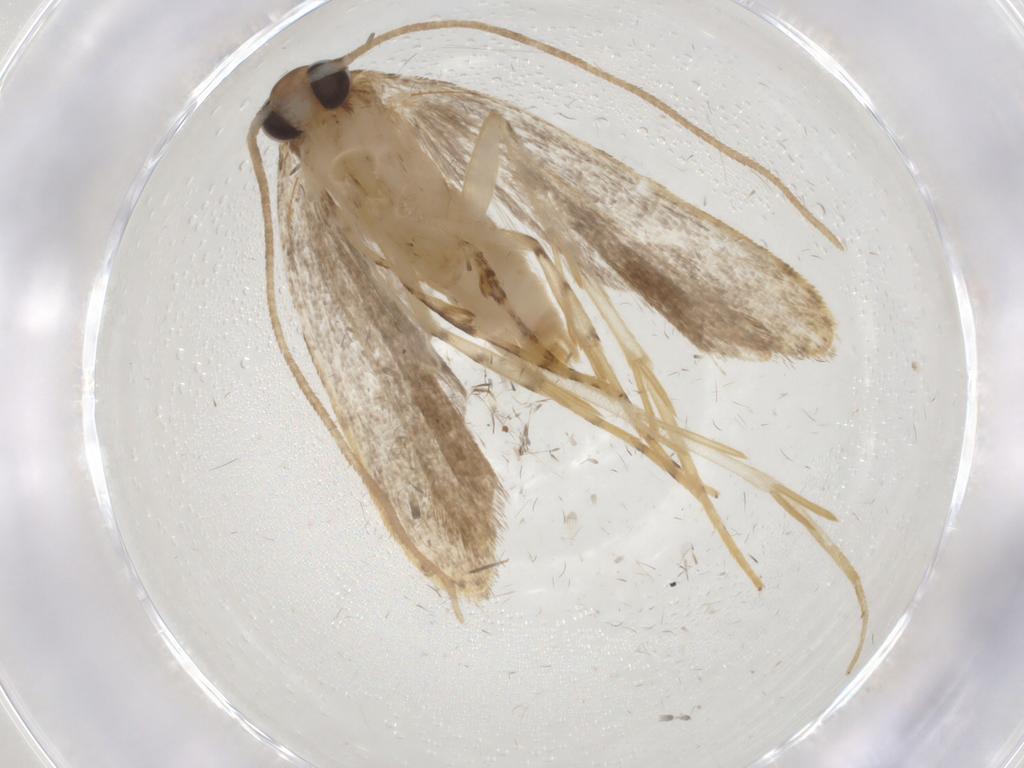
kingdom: Animalia
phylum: Arthropoda
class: Insecta
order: Lepidoptera
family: Oecophoridae
